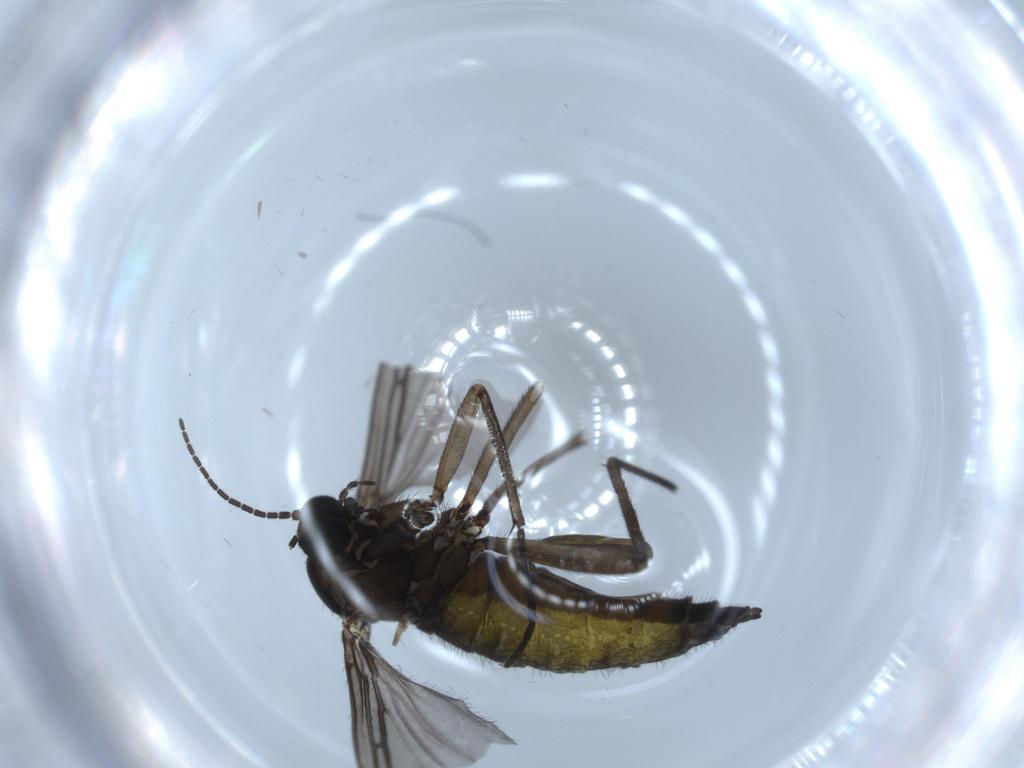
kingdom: Animalia
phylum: Arthropoda
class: Insecta
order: Diptera
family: Sciaridae
